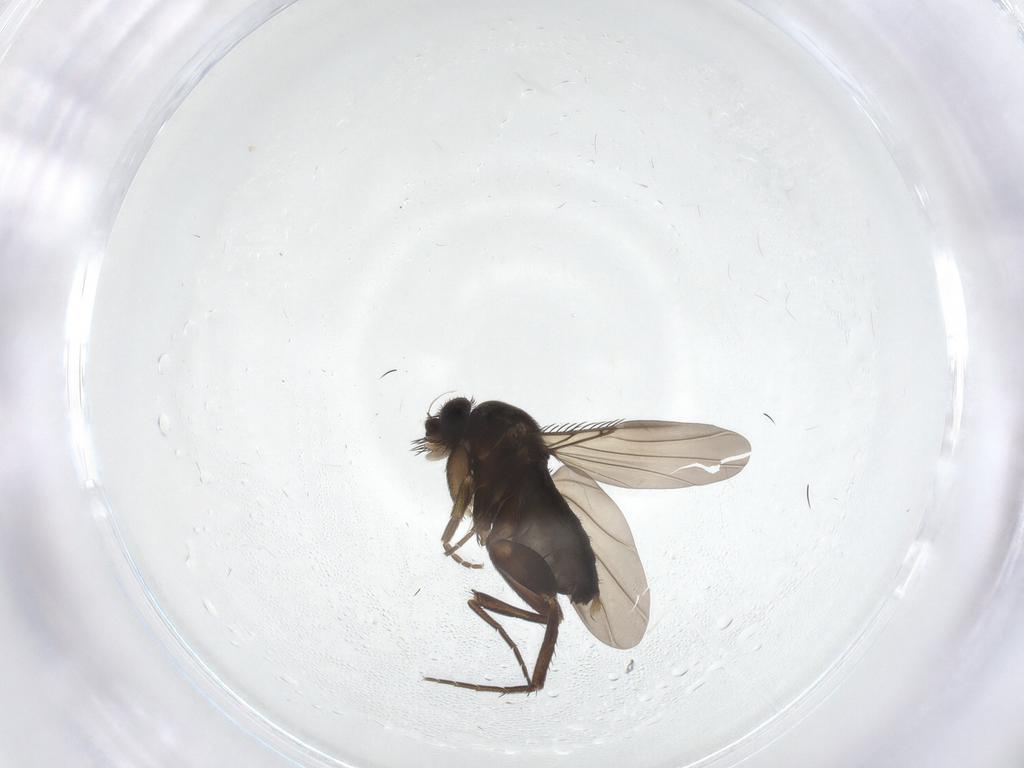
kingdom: Animalia
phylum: Arthropoda
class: Insecta
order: Diptera
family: Phoridae
